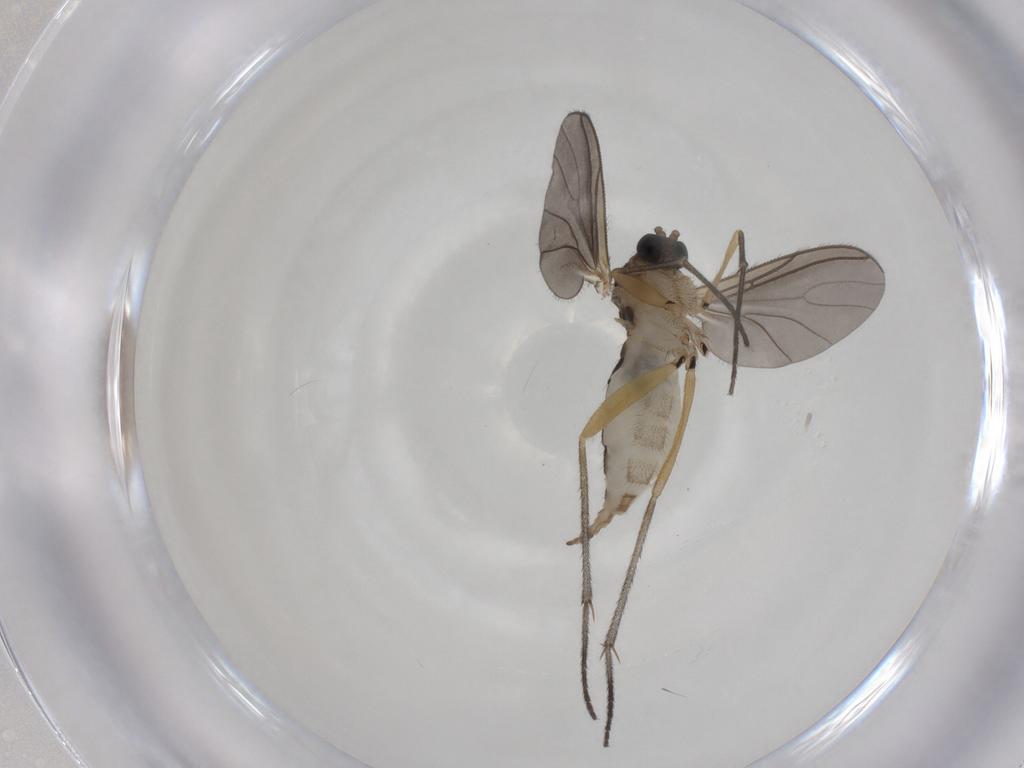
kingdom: Animalia
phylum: Arthropoda
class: Insecta
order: Diptera
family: Sciaridae
